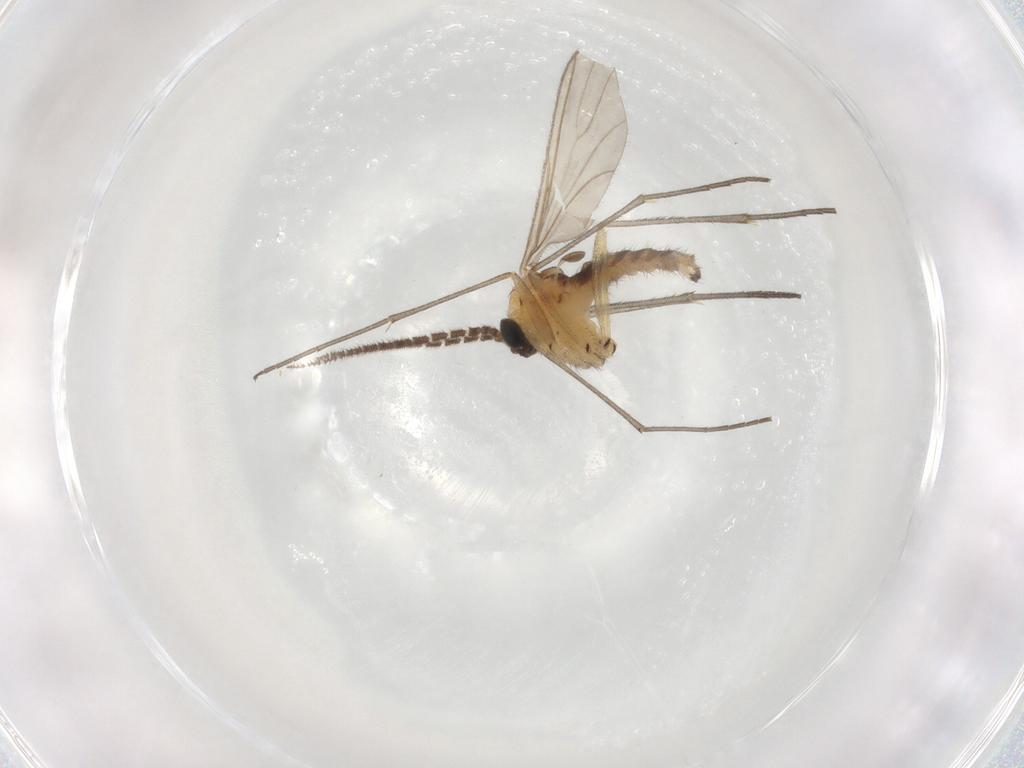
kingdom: Animalia
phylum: Arthropoda
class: Insecta
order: Diptera
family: Sciaridae
